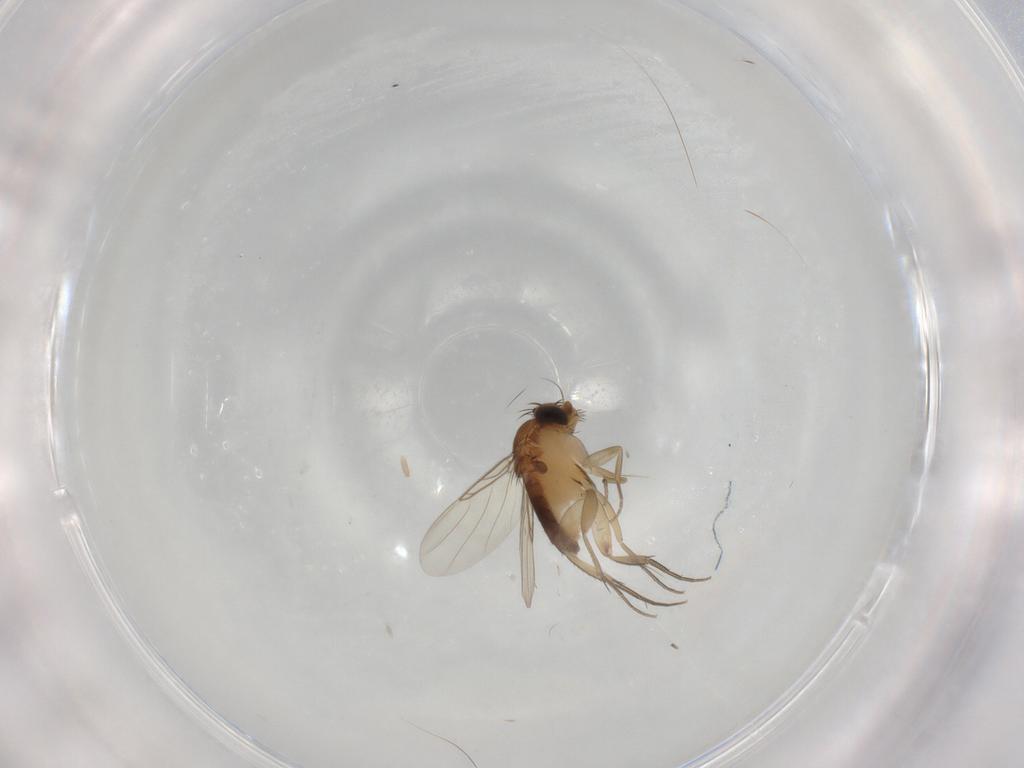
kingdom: Animalia
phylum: Arthropoda
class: Insecta
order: Diptera
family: Phoridae
